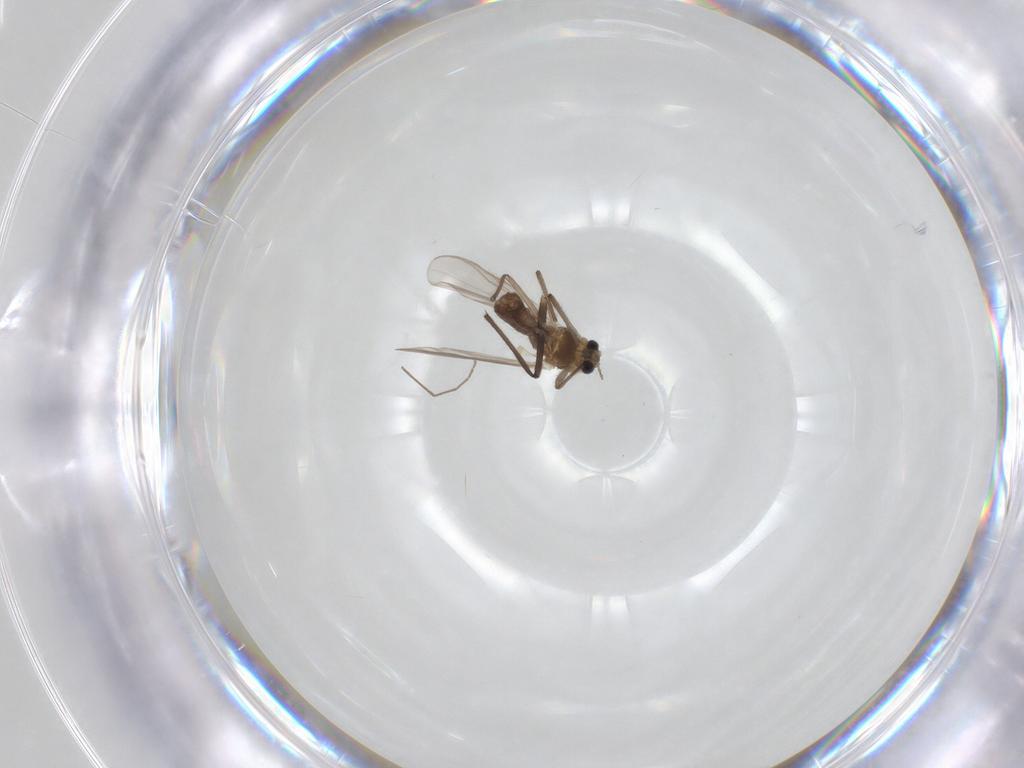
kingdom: Animalia
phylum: Arthropoda
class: Insecta
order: Diptera
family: Chironomidae
